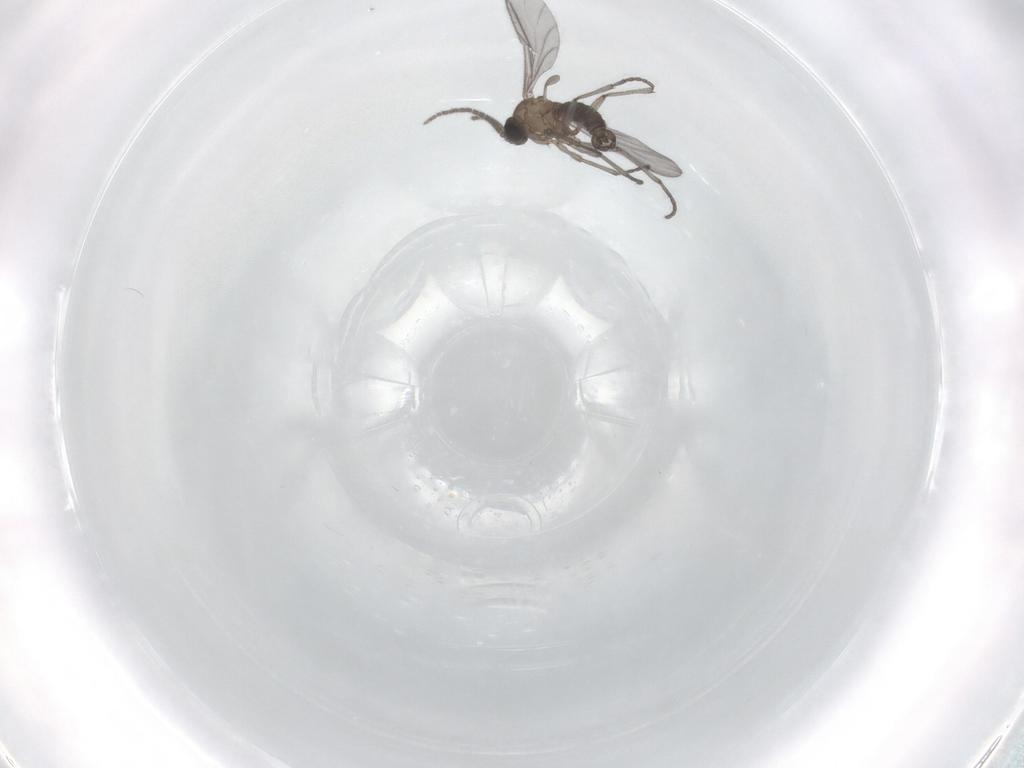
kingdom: Animalia
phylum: Arthropoda
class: Insecta
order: Diptera
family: Sciaridae
